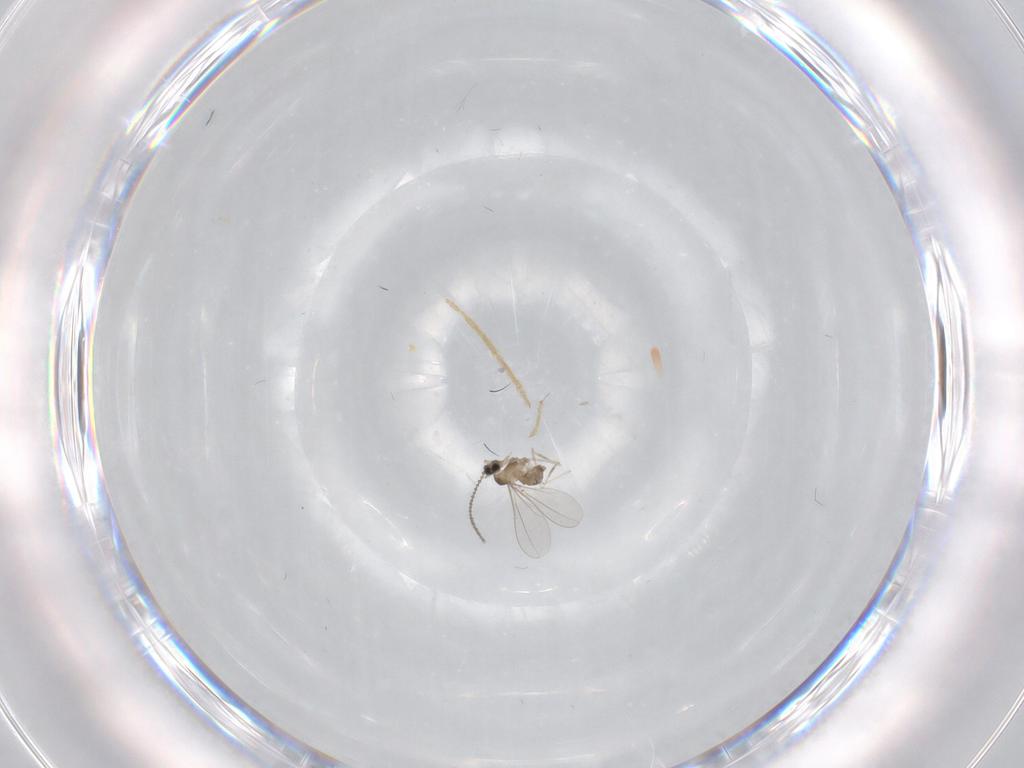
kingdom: Animalia
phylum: Arthropoda
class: Insecta
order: Diptera
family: Cecidomyiidae
